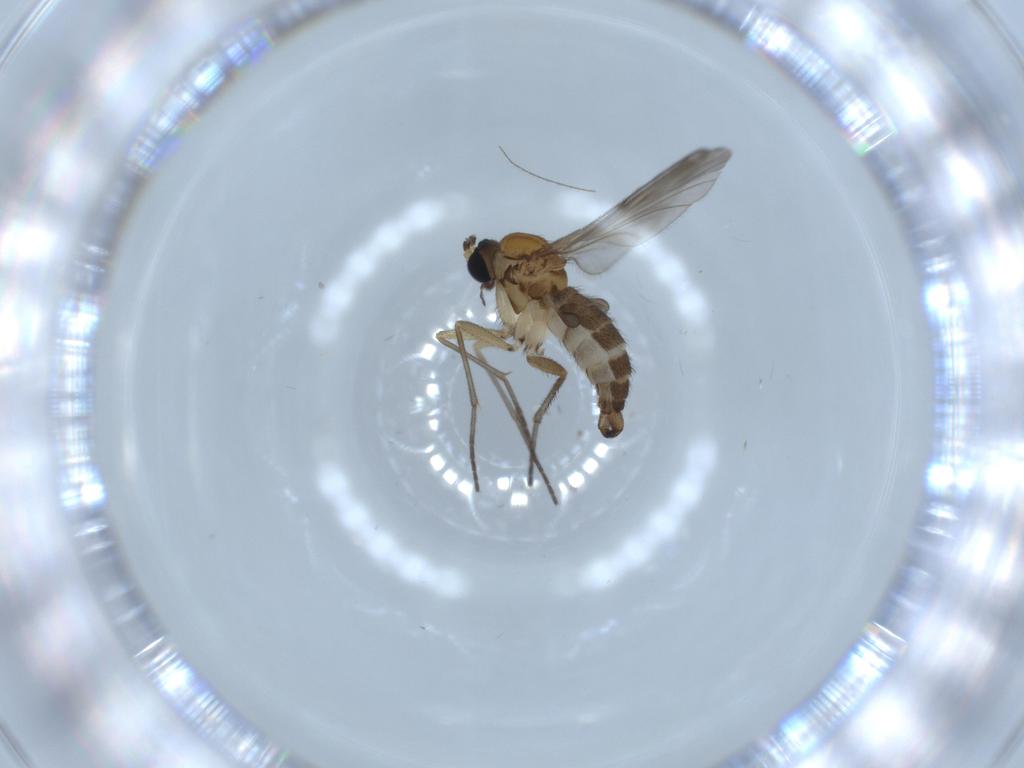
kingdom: Animalia
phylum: Arthropoda
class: Insecta
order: Diptera
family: Sciaridae
